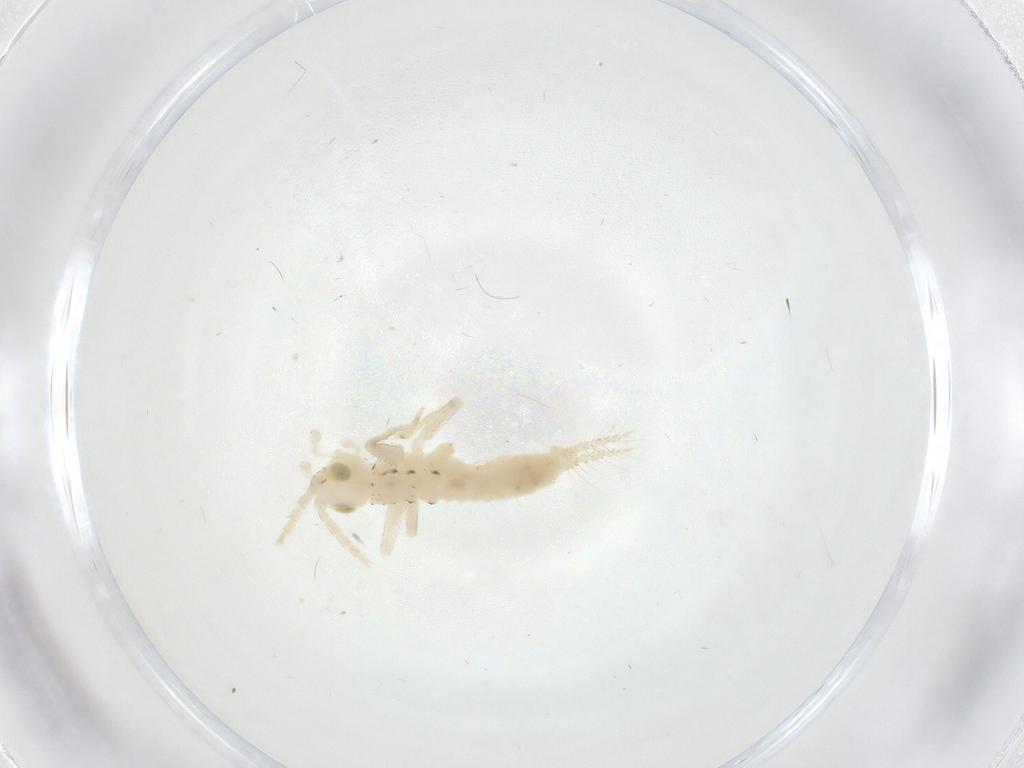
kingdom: Animalia
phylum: Arthropoda
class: Insecta
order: Orthoptera
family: Trigonidiidae
